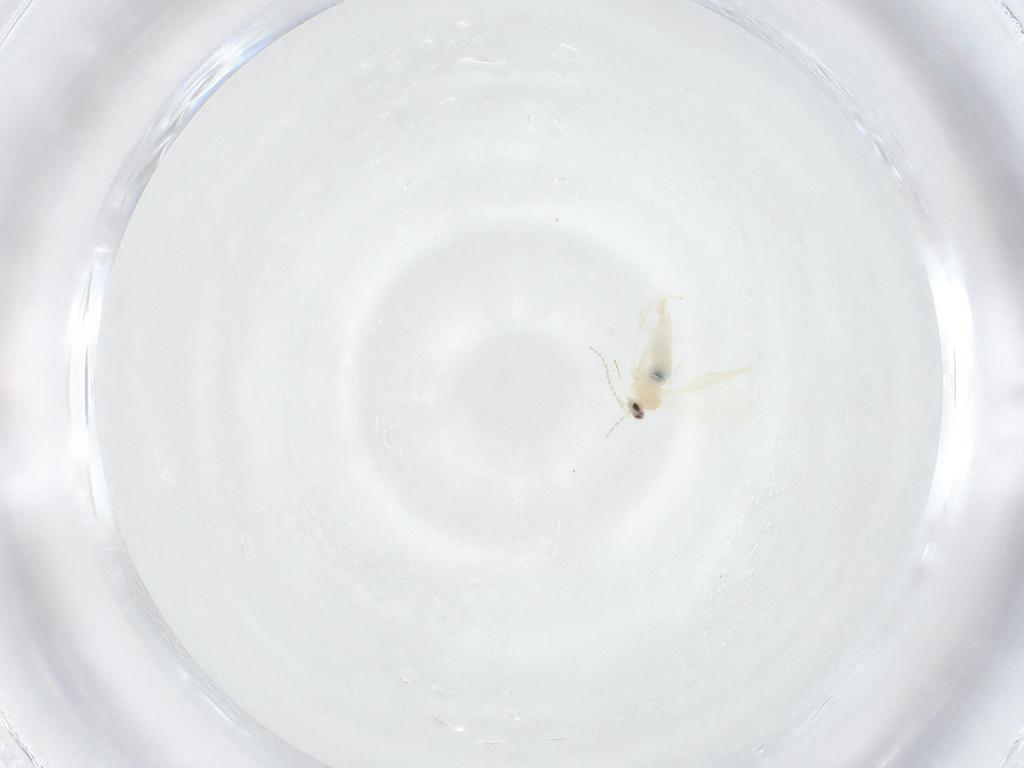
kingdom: Animalia
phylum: Arthropoda
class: Insecta
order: Diptera
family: Cecidomyiidae
